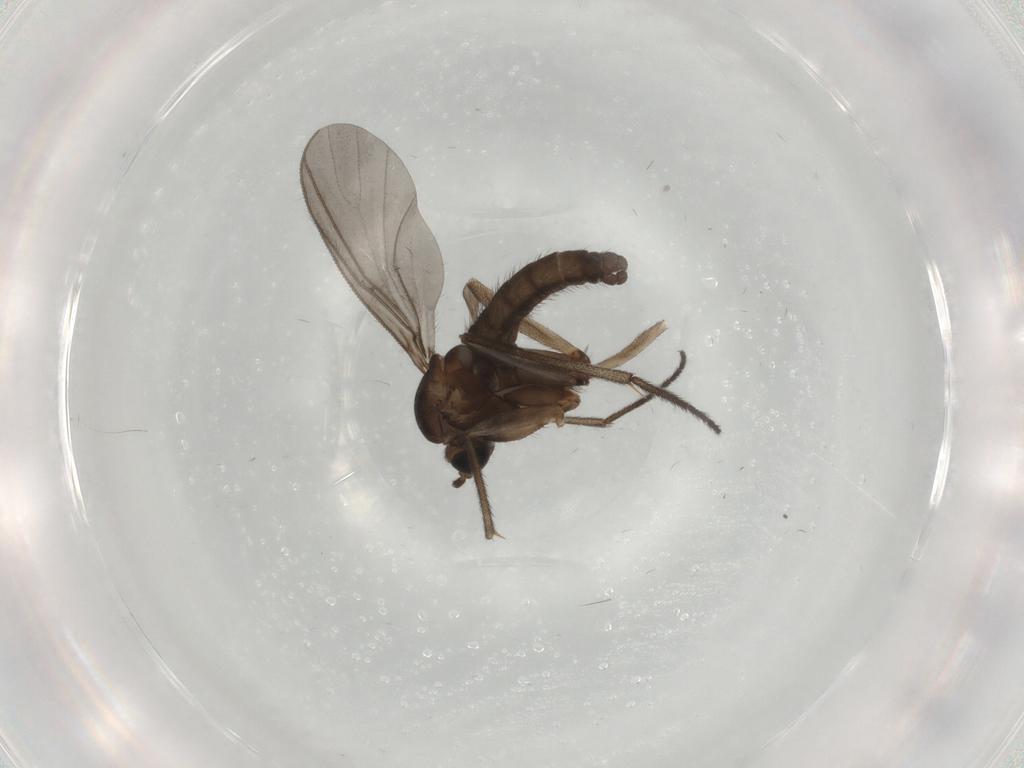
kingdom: Animalia
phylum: Arthropoda
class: Insecta
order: Diptera
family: Sciaridae
